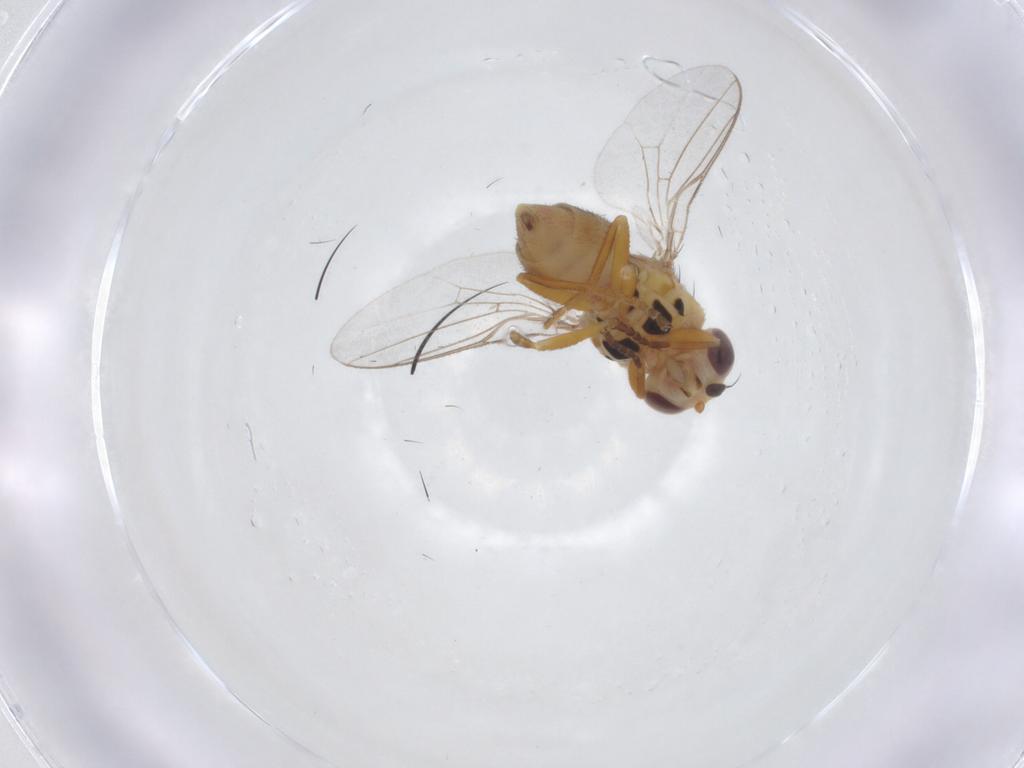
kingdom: Animalia
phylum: Arthropoda
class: Insecta
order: Diptera
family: Chloropidae
